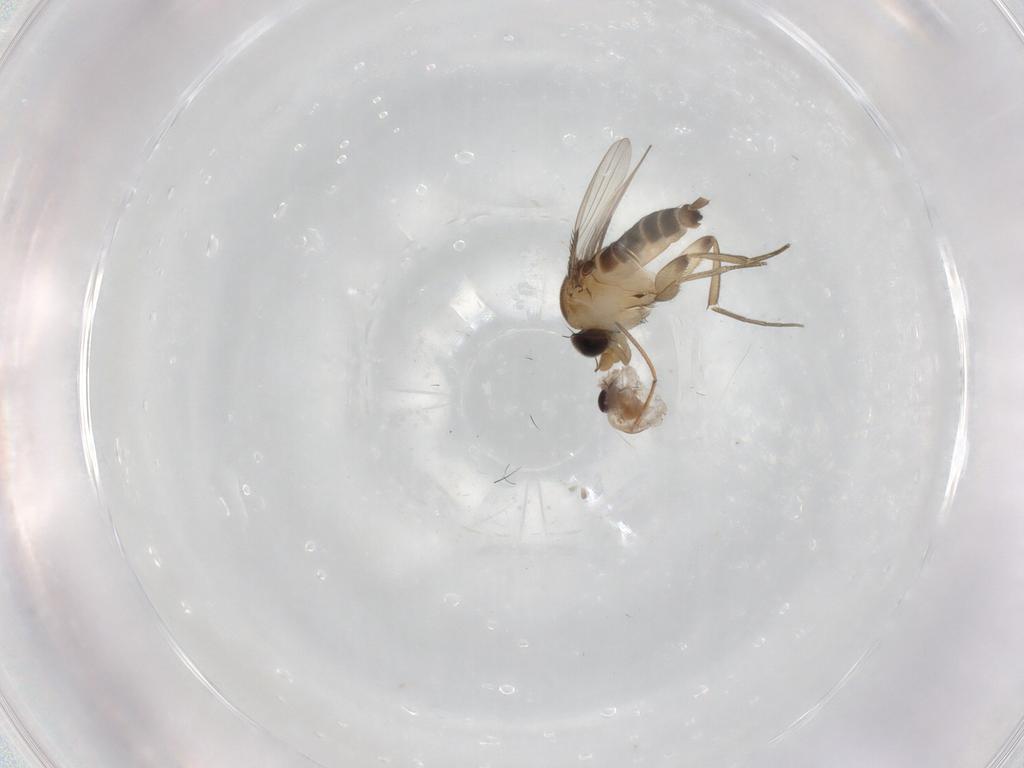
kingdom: Animalia
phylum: Arthropoda
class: Insecta
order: Diptera
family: Phoridae
